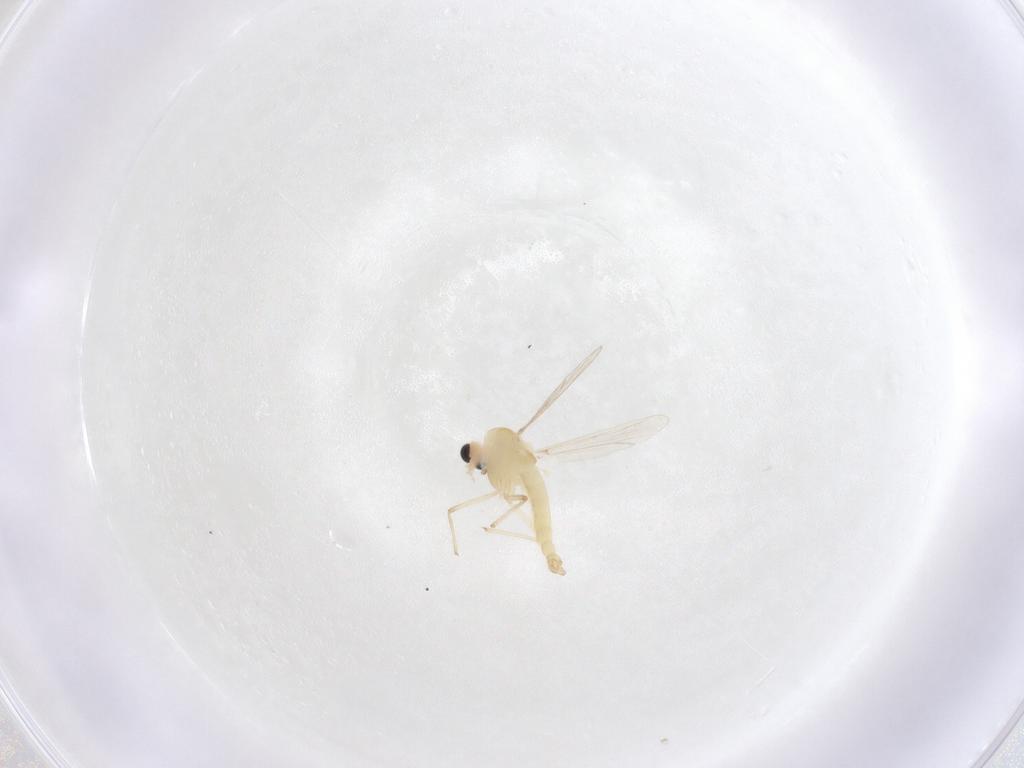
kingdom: Animalia
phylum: Arthropoda
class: Insecta
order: Diptera
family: Chironomidae
